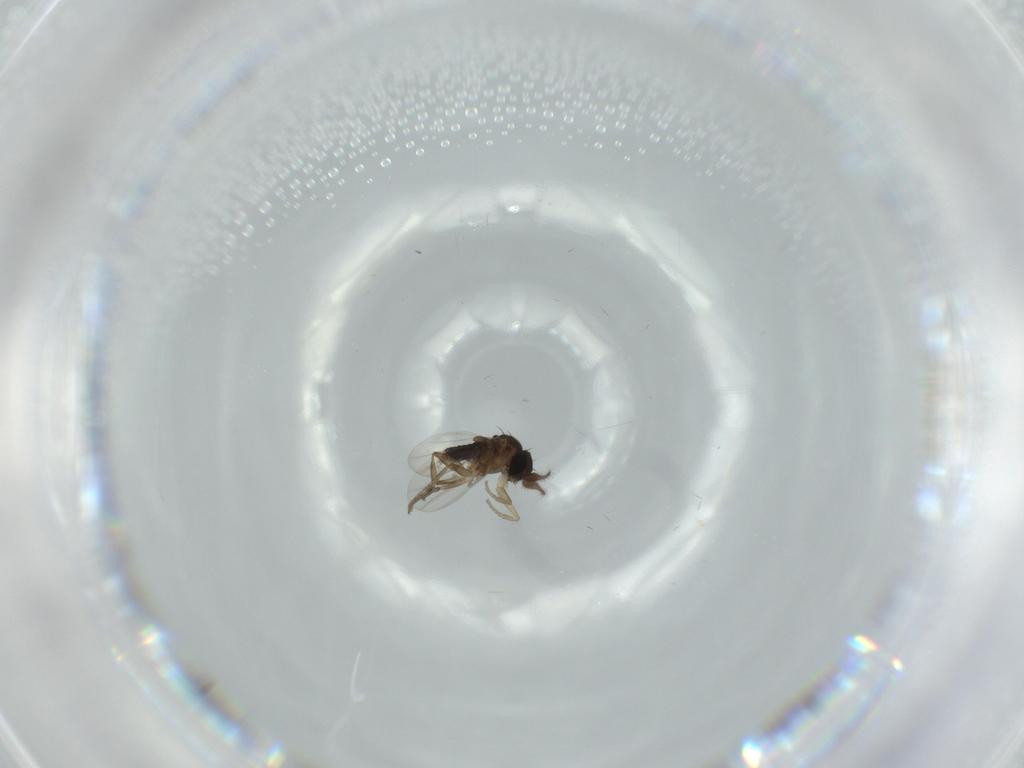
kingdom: Animalia
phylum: Arthropoda
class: Insecta
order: Diptera
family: Phoridae
